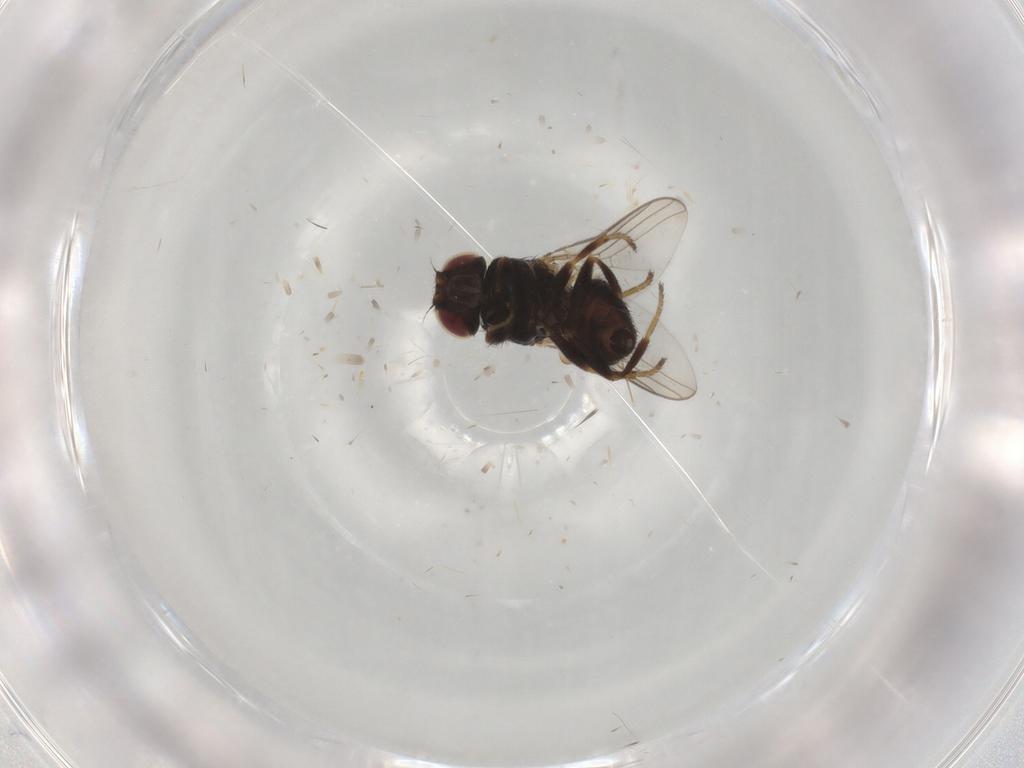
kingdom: Animalia
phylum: Arthropoda
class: Insecta
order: Diptera
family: Chloropidae
